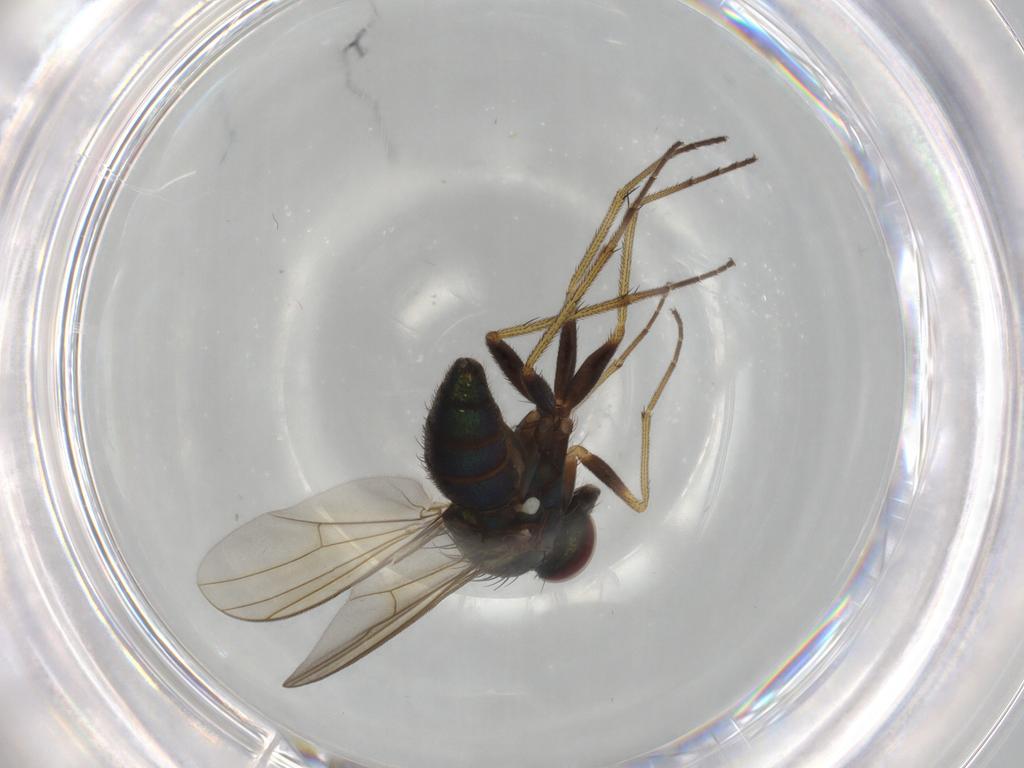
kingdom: Animalia
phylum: Arthropoda
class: Insecta
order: Diptera
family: Dolichopodidae
